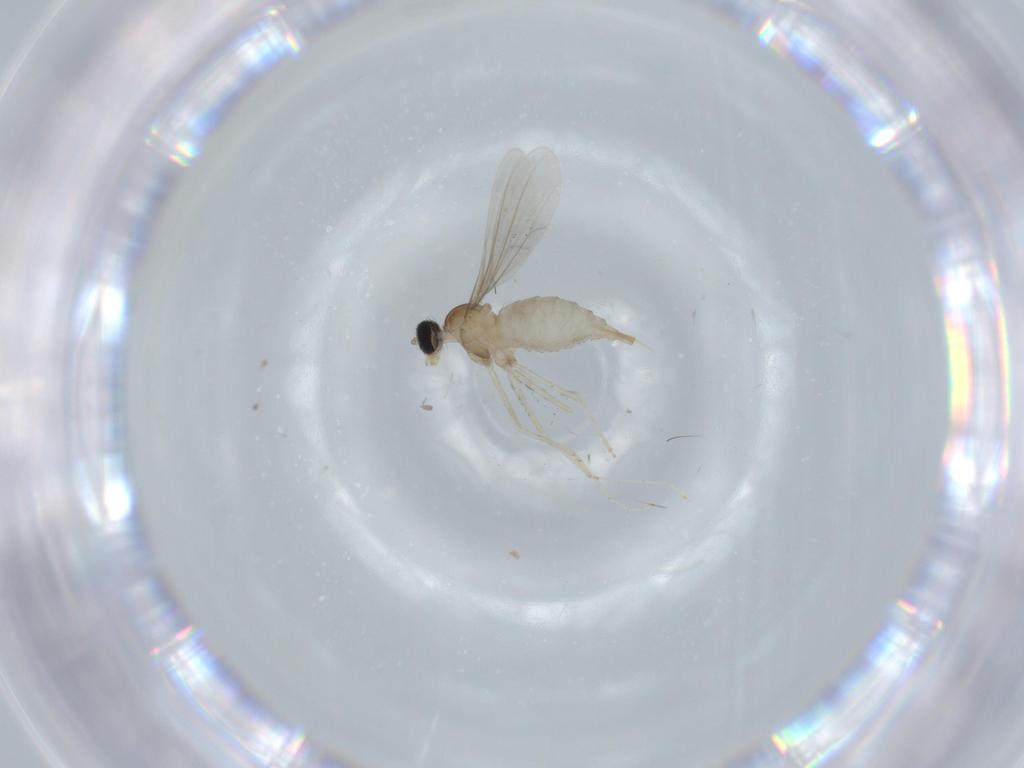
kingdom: Animalia
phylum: Arthropoda
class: Insecta
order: Diptera
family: Cecidomyiidae
